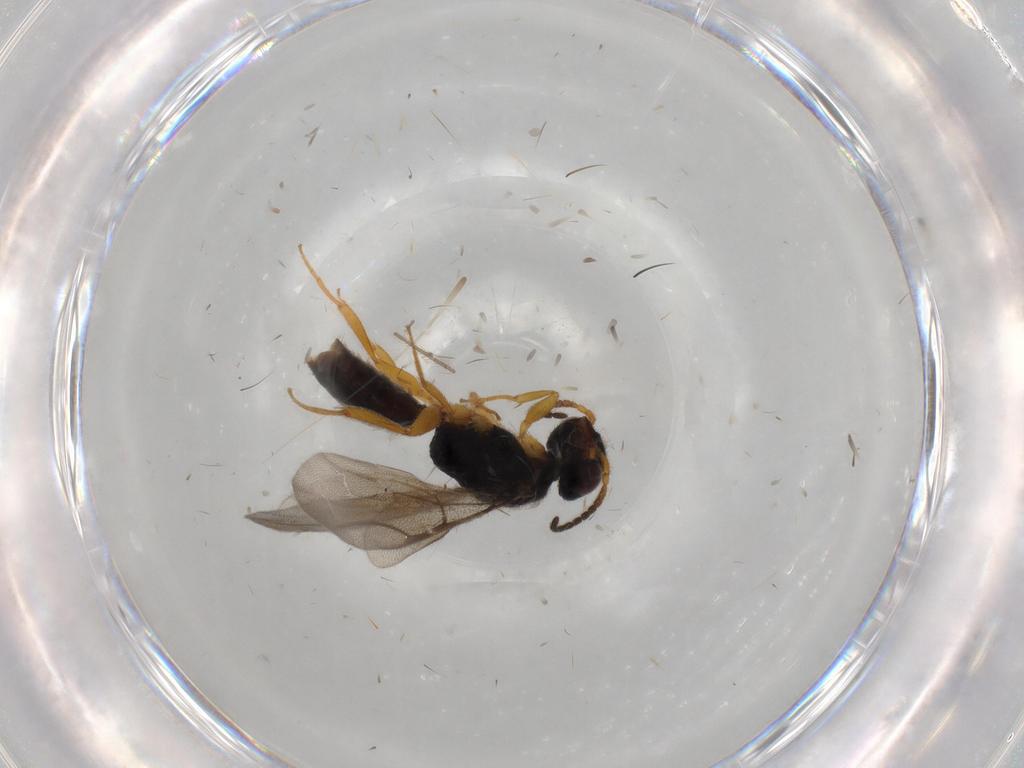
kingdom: Animalia
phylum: Arthropoda
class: Insecta
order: Hymenoptera
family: Bethylidae
